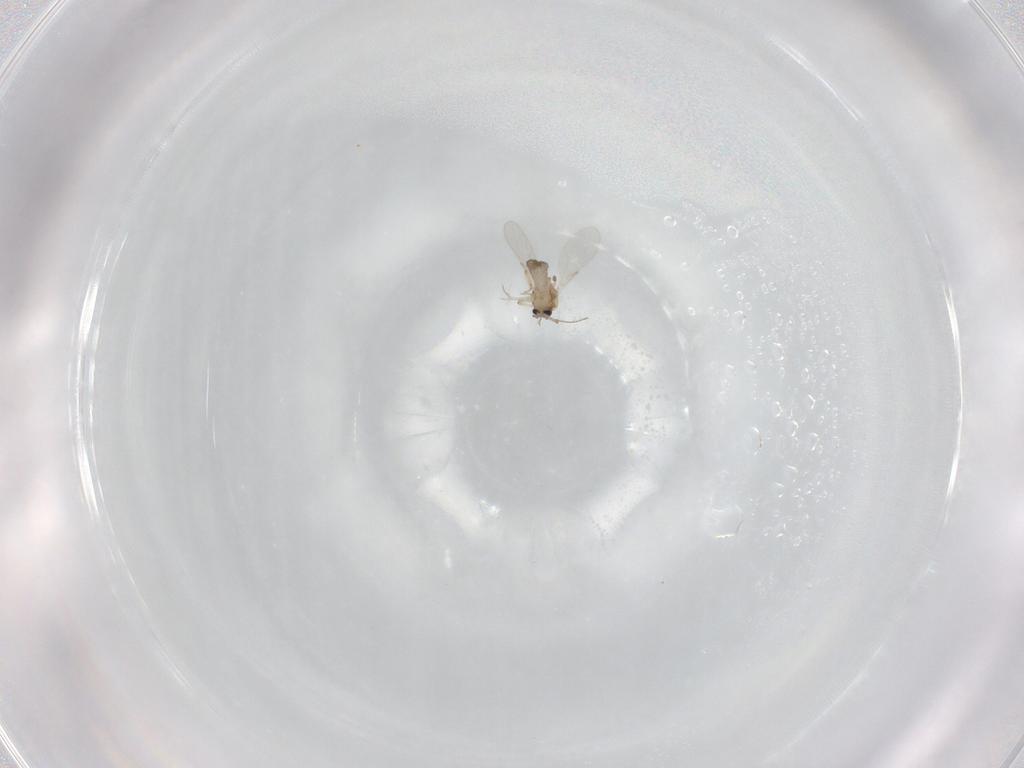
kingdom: Animalia
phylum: Arthropoda
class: Insecta
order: Diptera
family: Ceratopogonidae
